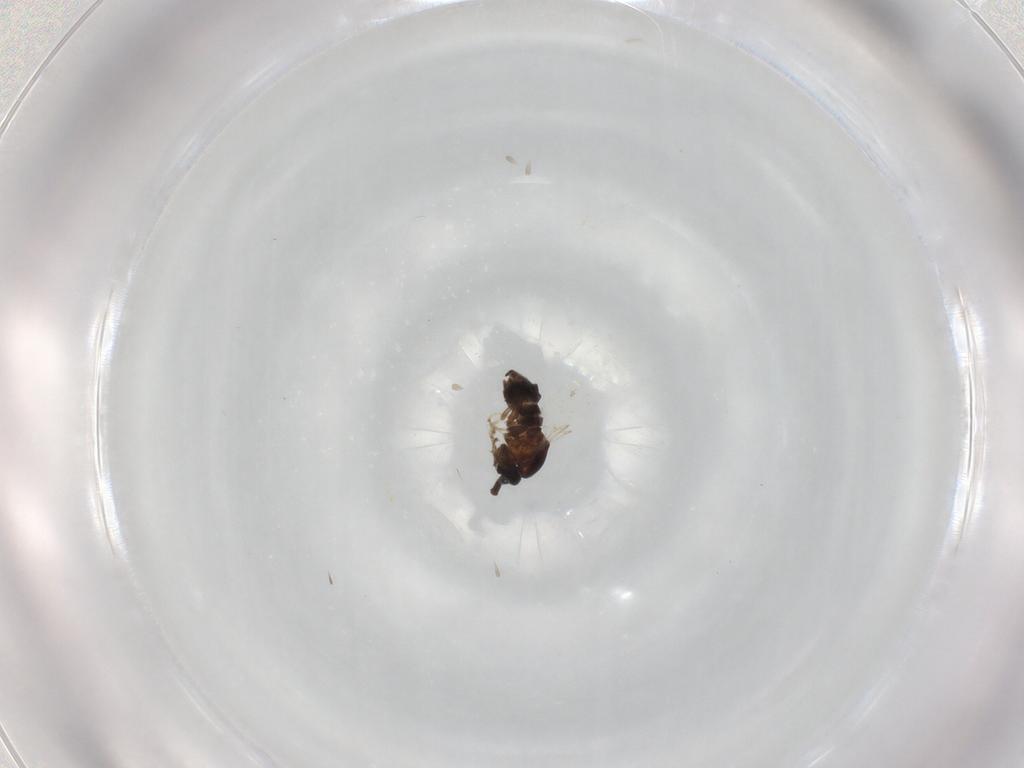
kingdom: Animalia
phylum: Arthropoda
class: Insecta
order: Diptera
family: Scatopsidae
